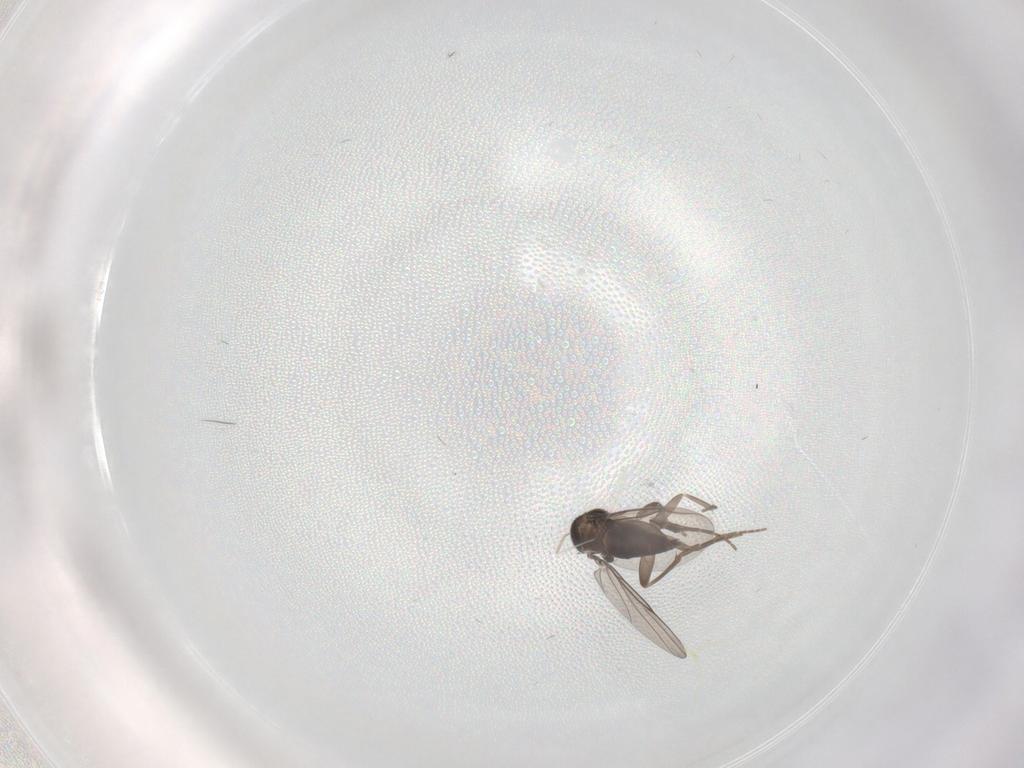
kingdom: Animalia
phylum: Arthropoda
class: Insecta
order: Diptera
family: Cecidomyiidae
